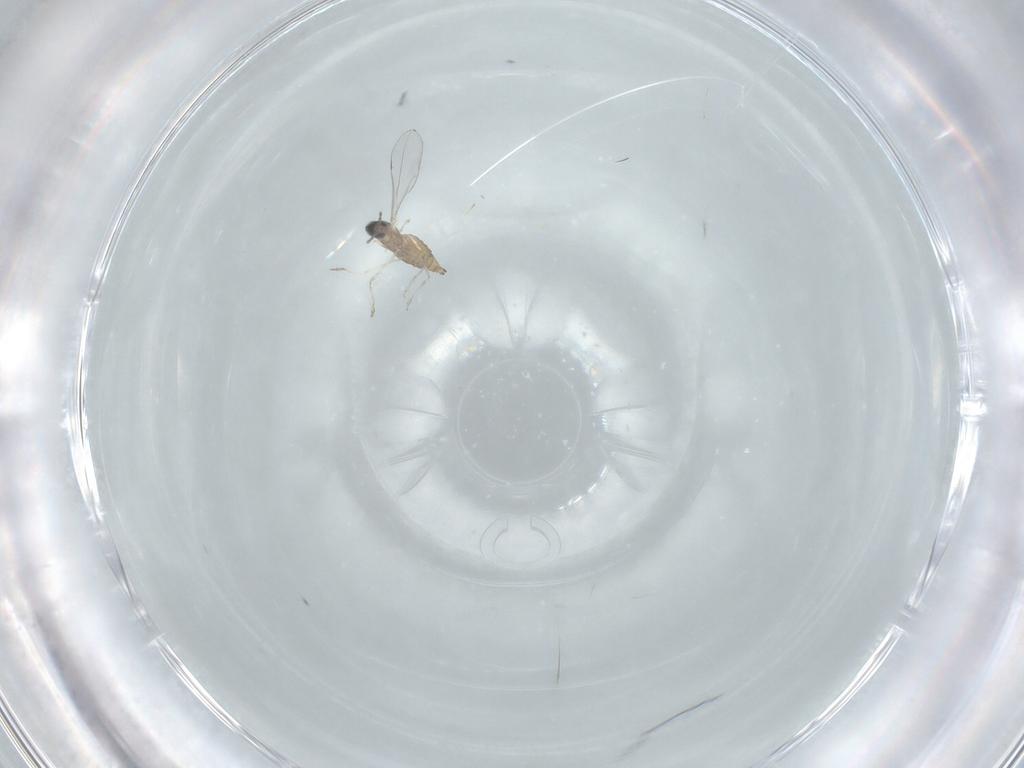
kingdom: Animalia
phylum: Arthropoda
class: Insecta
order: Diptera
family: Cecidomyiidae
